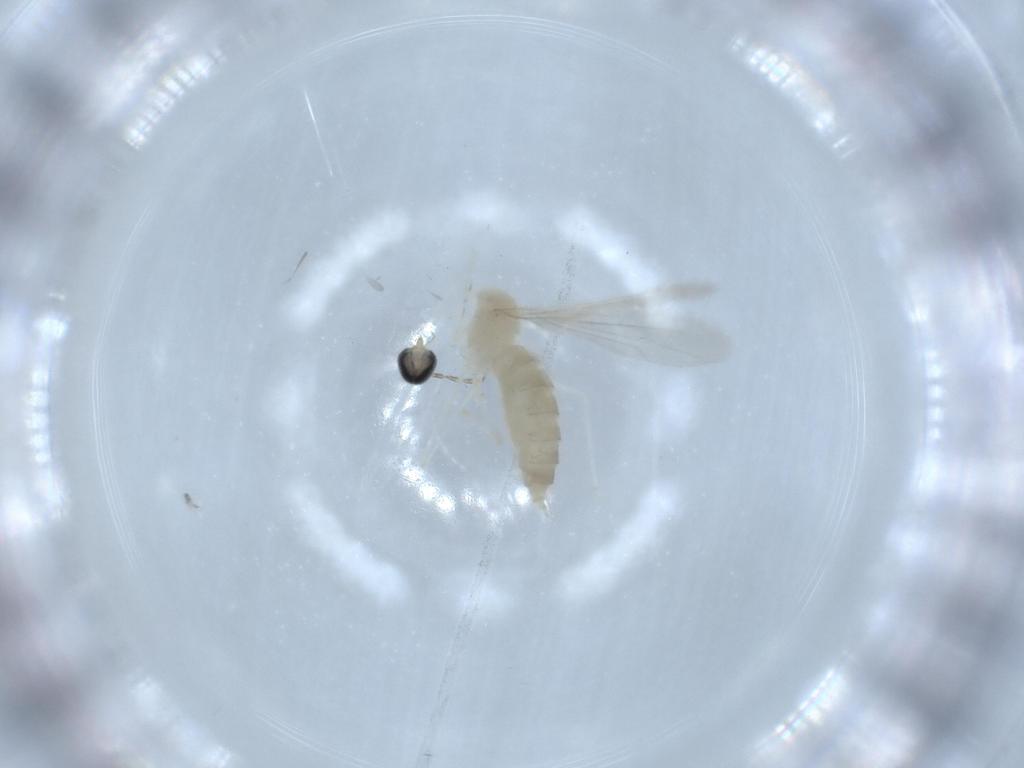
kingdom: Animalia
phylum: Arthropoda
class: Insecta
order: Diptera
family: Cecidomyiidae
